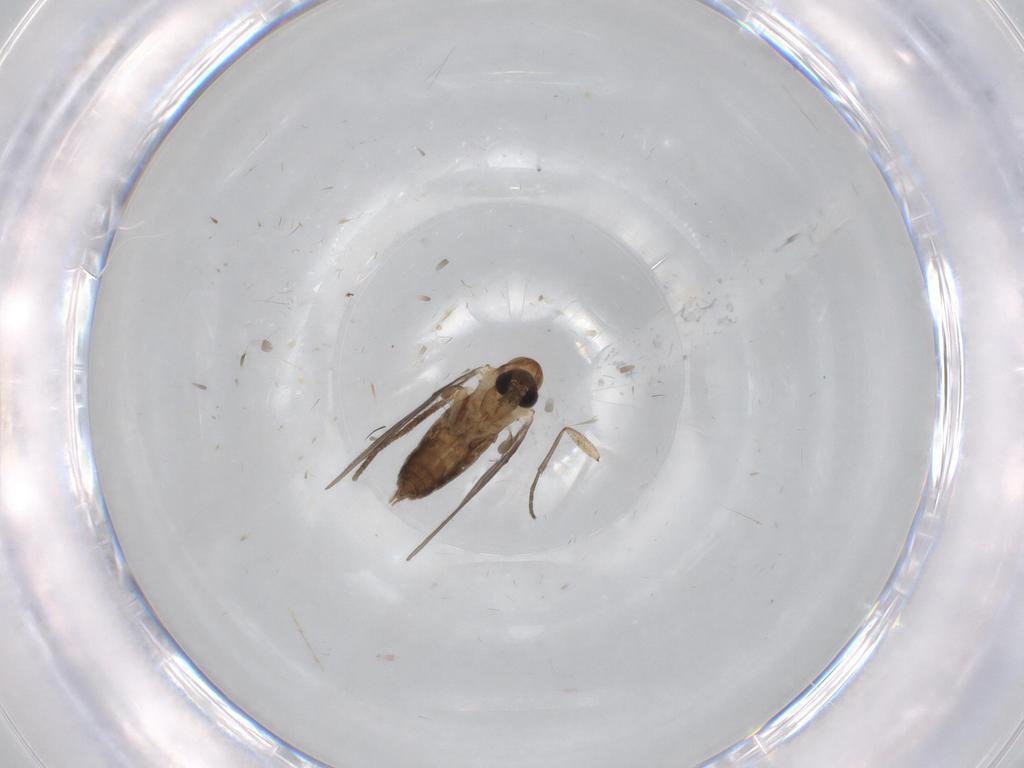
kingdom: Animalia
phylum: Arthropoda
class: Insecta
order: Diptera
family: Sciaridae
